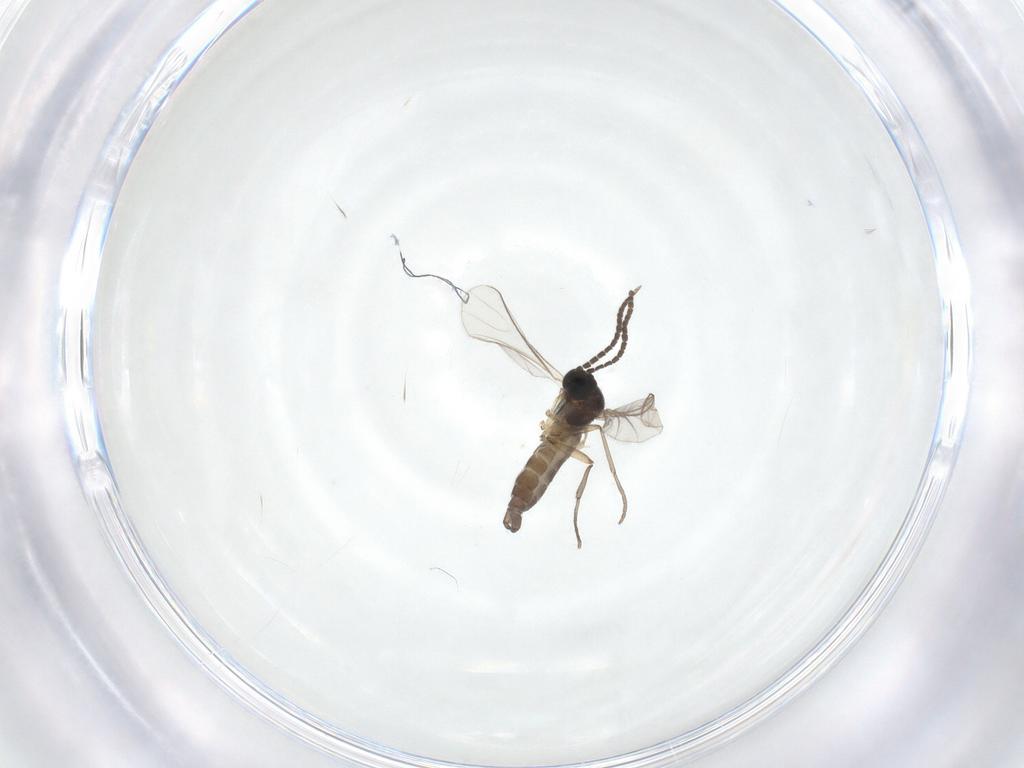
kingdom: Animalia
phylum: Arthropoda
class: Insecta
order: Diptera
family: Sciaridae
